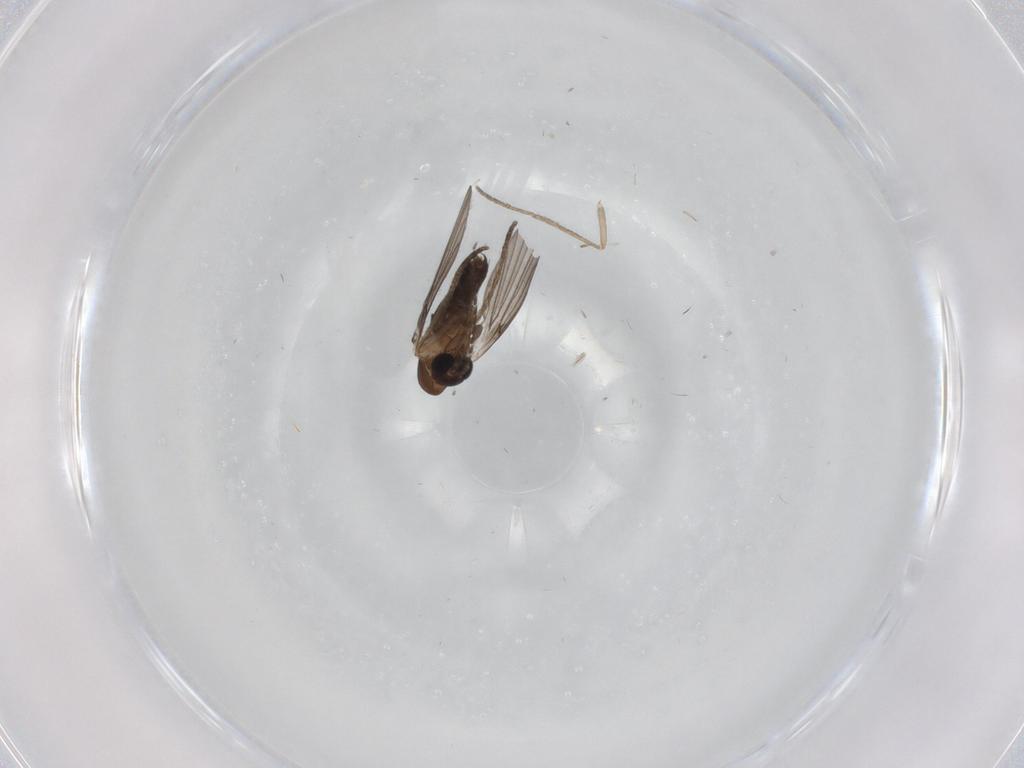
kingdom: Animalia
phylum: Arthropoda
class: Insecta
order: Diptera
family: Psychodidae
